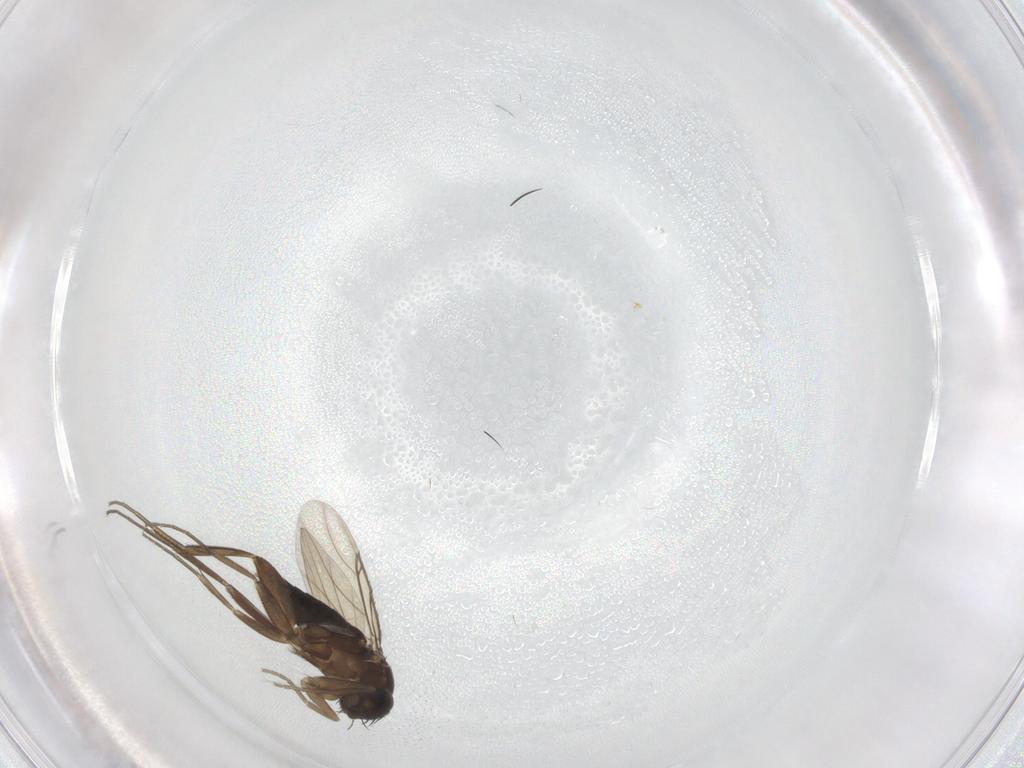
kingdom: Animalia
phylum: Arthropoda
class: Insecta
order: Diptera
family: Phoridae
